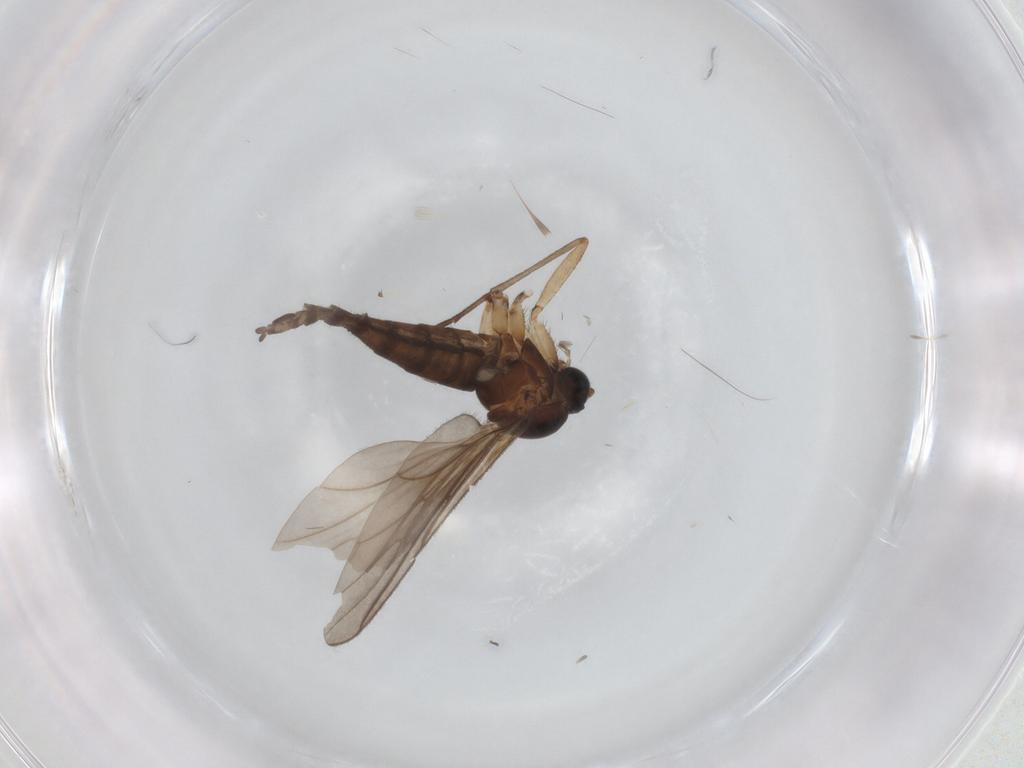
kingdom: Animalia
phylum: Arthropoda
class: Insecta
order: Diptera
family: Sciaridae
